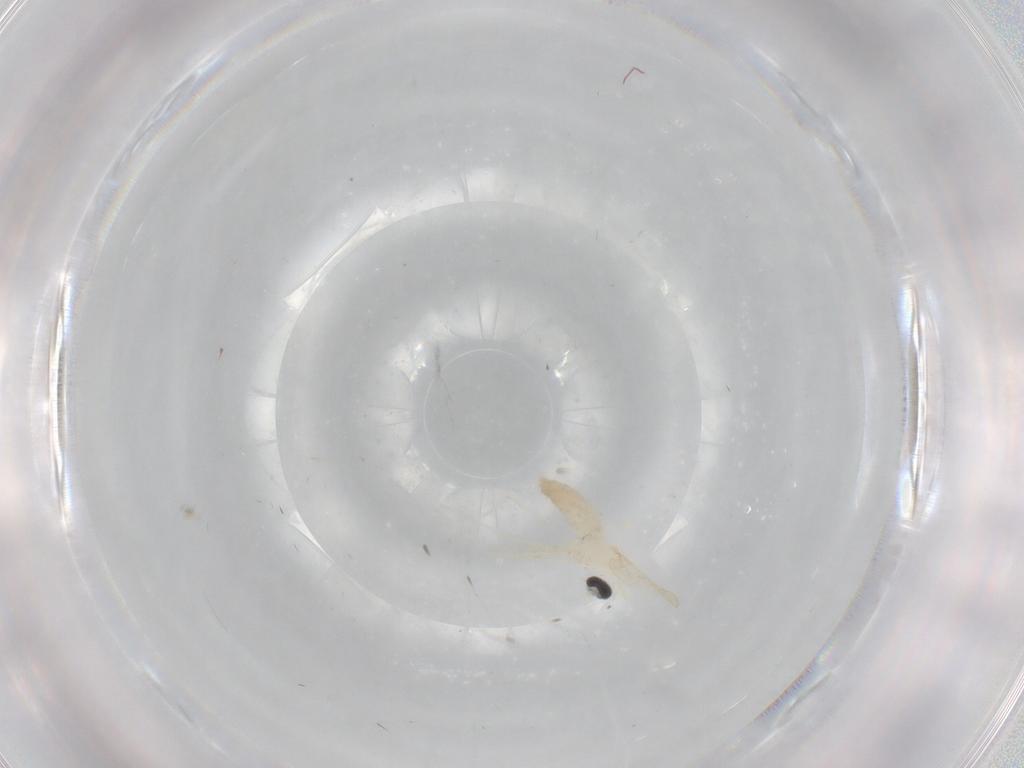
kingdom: Animalia
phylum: Arthropoda
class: Insecta
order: Diptera
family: Cecidomyiidae
